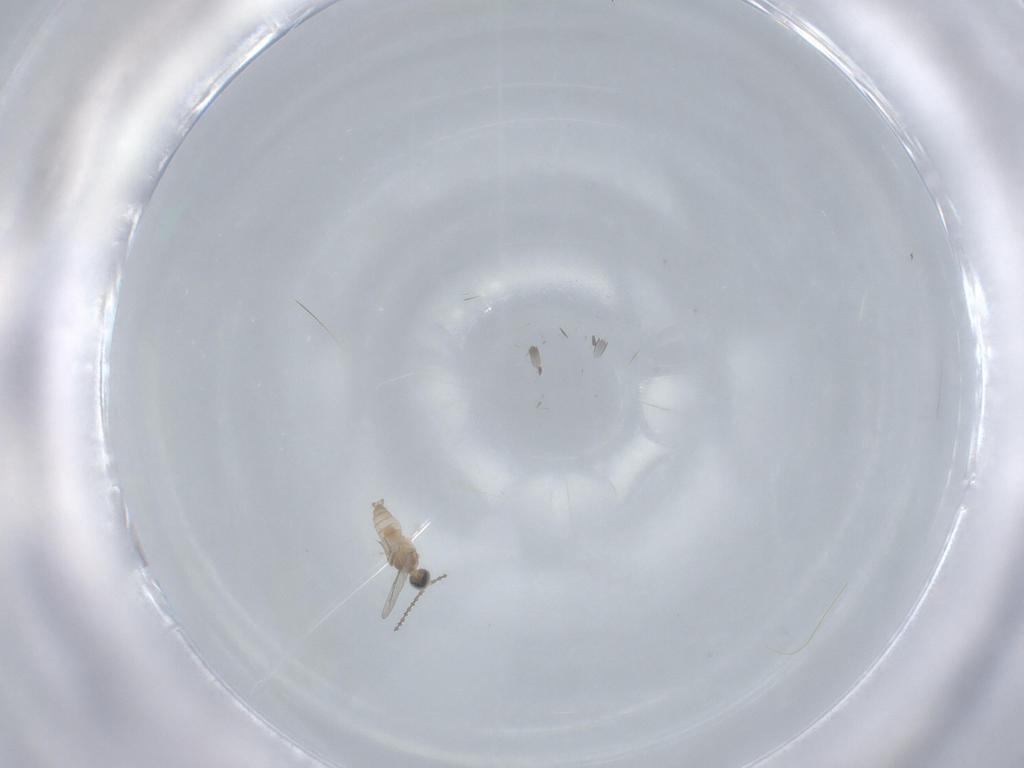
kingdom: Animalia
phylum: Arthropoda
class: Insecta
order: Diptera
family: Cecidomyiidae
